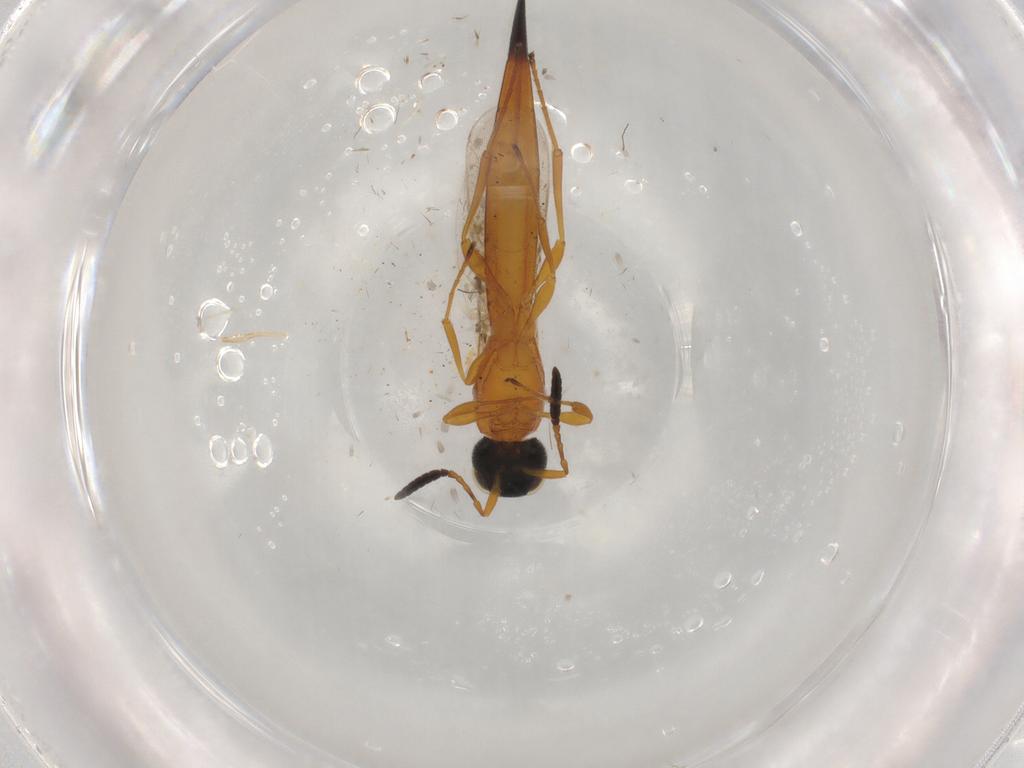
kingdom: Animalia
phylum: Arthropoda
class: Insecta
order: Hymenoptera
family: Scelionidae
